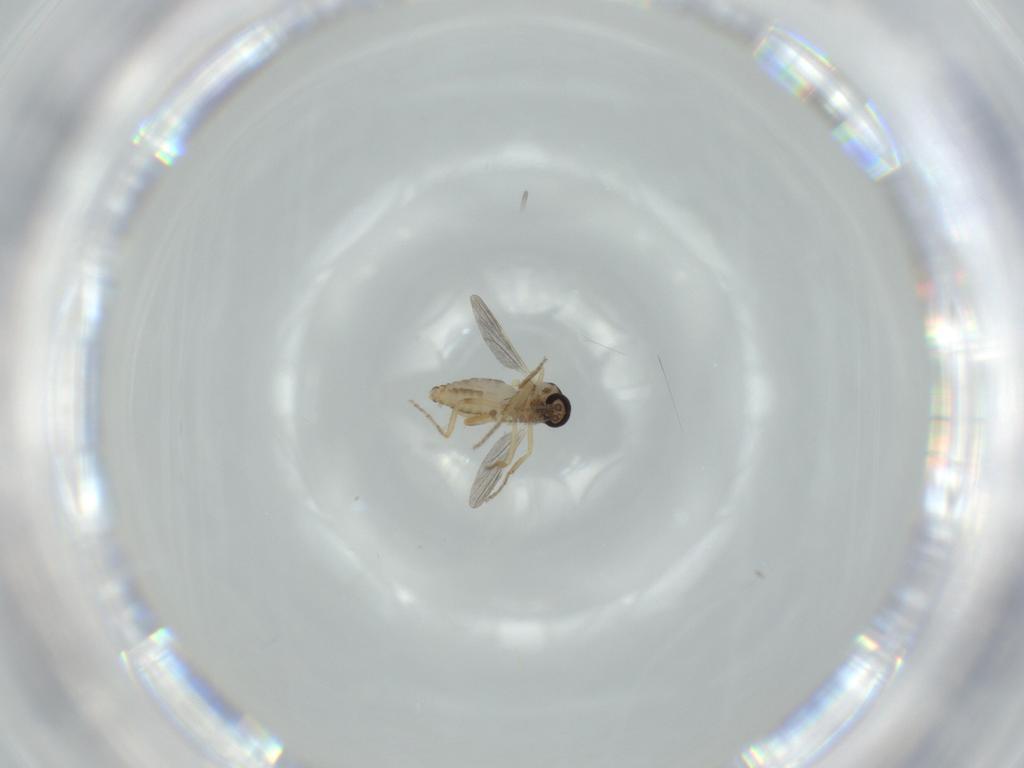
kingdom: Animalia
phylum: Arthropoda
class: Insecta
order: Diptera
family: Ceratopogonidae
